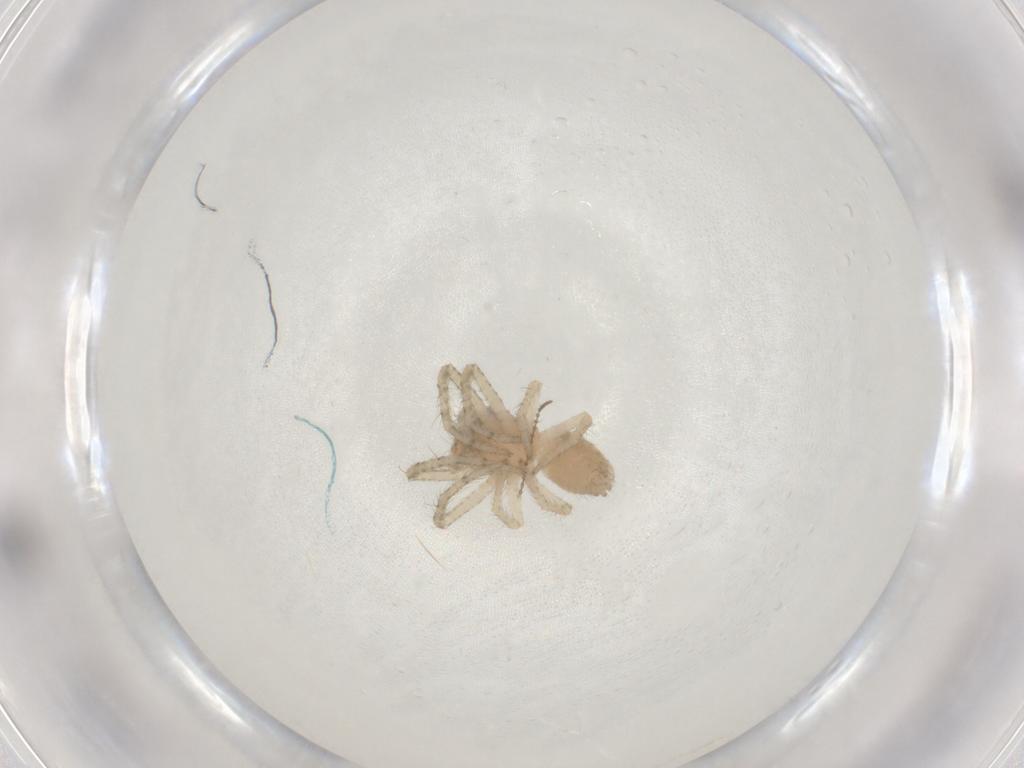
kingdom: Animalia
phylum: Arthropoda
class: Arachnida
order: Araneae
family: Thomisidae
